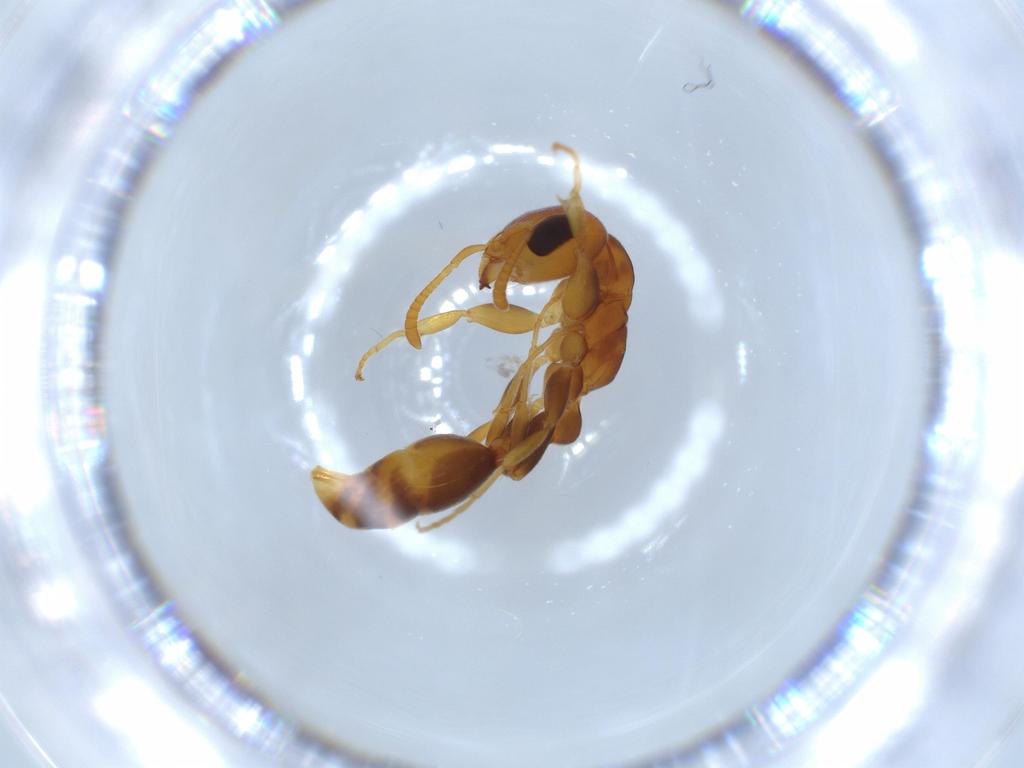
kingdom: Animalia
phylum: Arthropoda
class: Insecta
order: Hymenoptera
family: Formicidae
